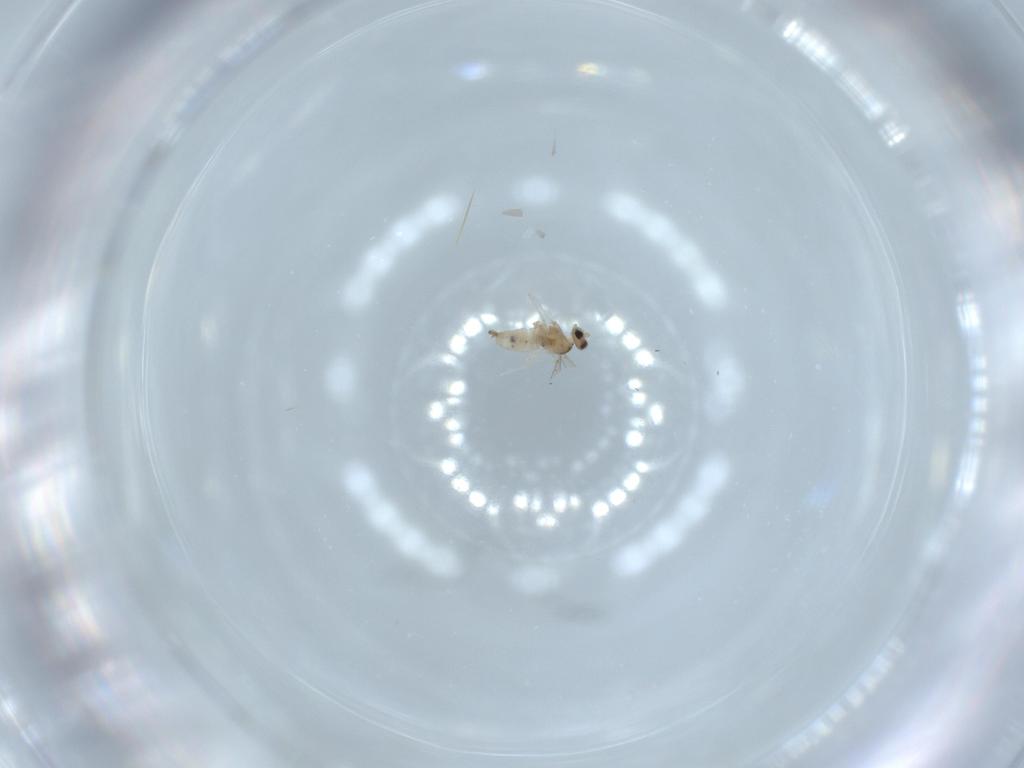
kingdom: Animalia
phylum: Arthropoda
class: Insecta
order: Diptera
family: Cecidomyiidae
